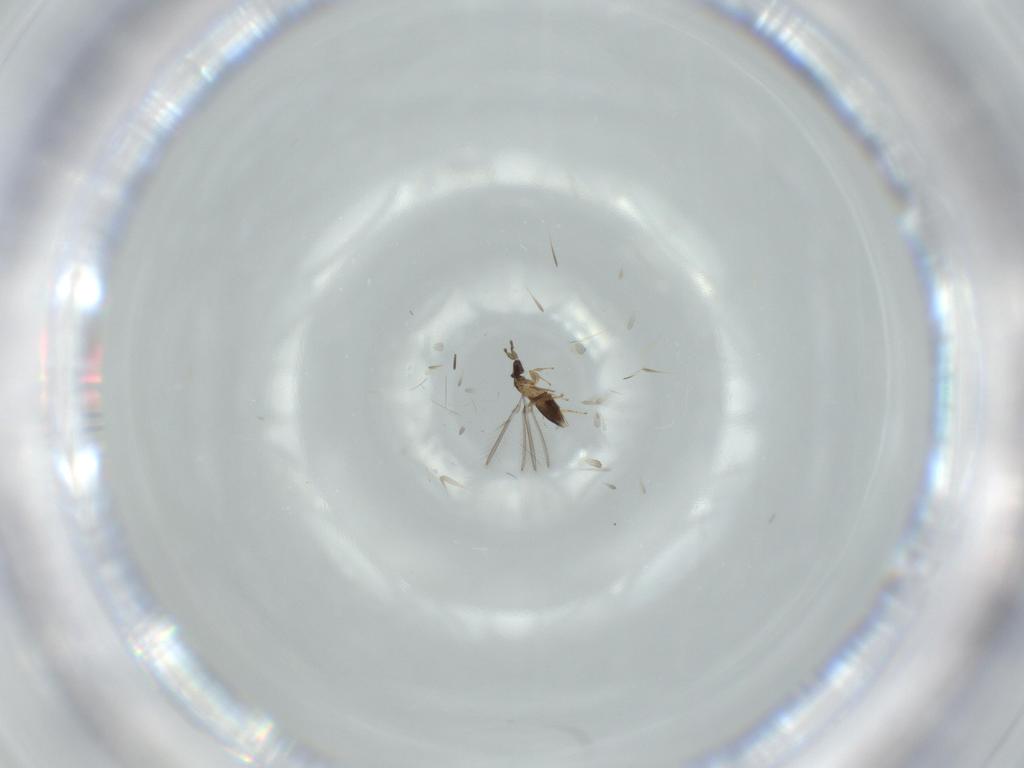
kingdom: Animalia
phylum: Arthropoda
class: Insecta
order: Hymenoptera
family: Mymaridae
